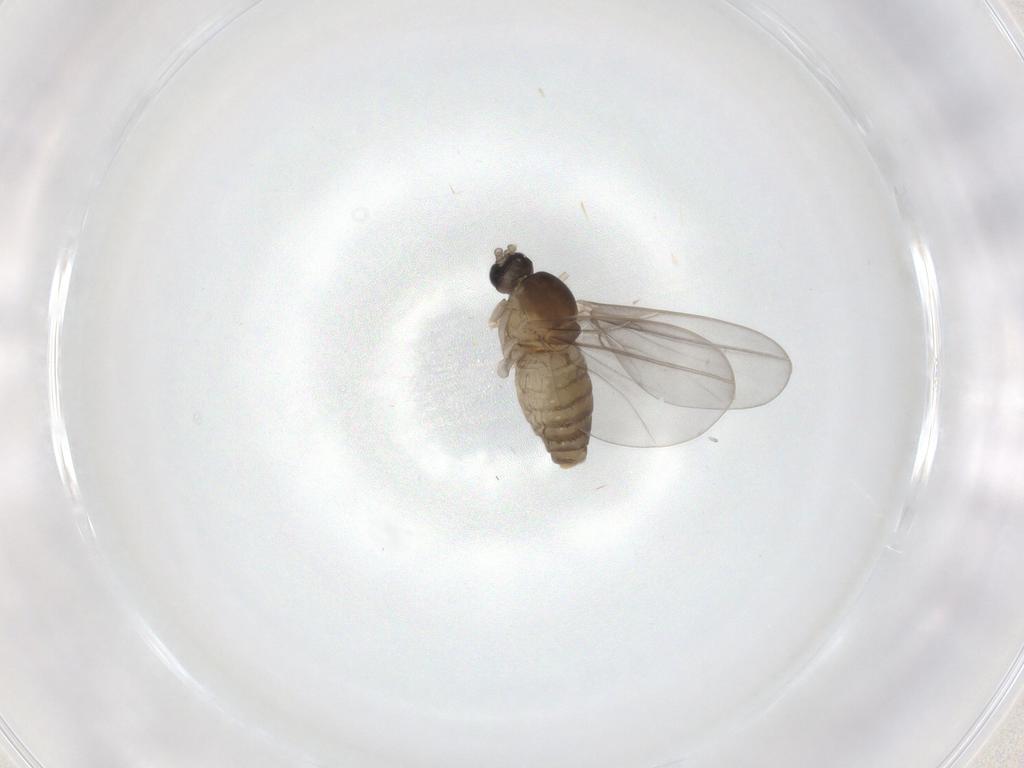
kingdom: Animalia
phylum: Arthropoda
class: Insecta
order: Diptera
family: Cecidomyiidae
